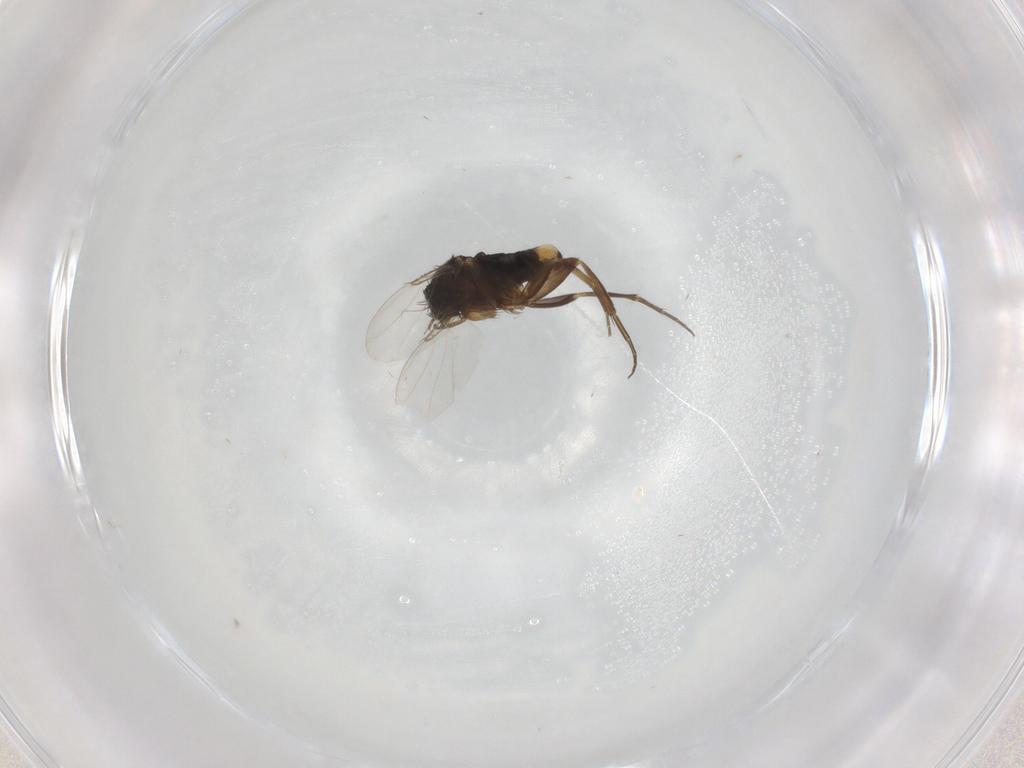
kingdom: Animalia
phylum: Arthropoda
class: Insecta
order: Diptera
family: Phoridae
